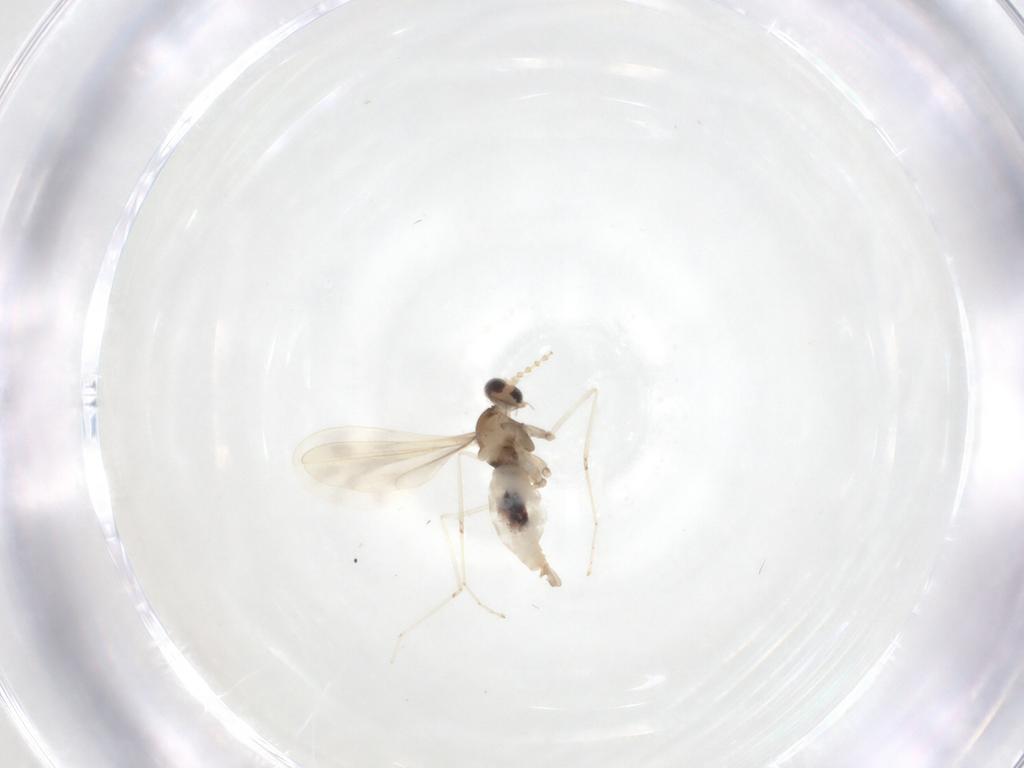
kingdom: Animalia
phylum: Arthropoda
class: Insecta
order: Diptera
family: Cecidomyiidae
